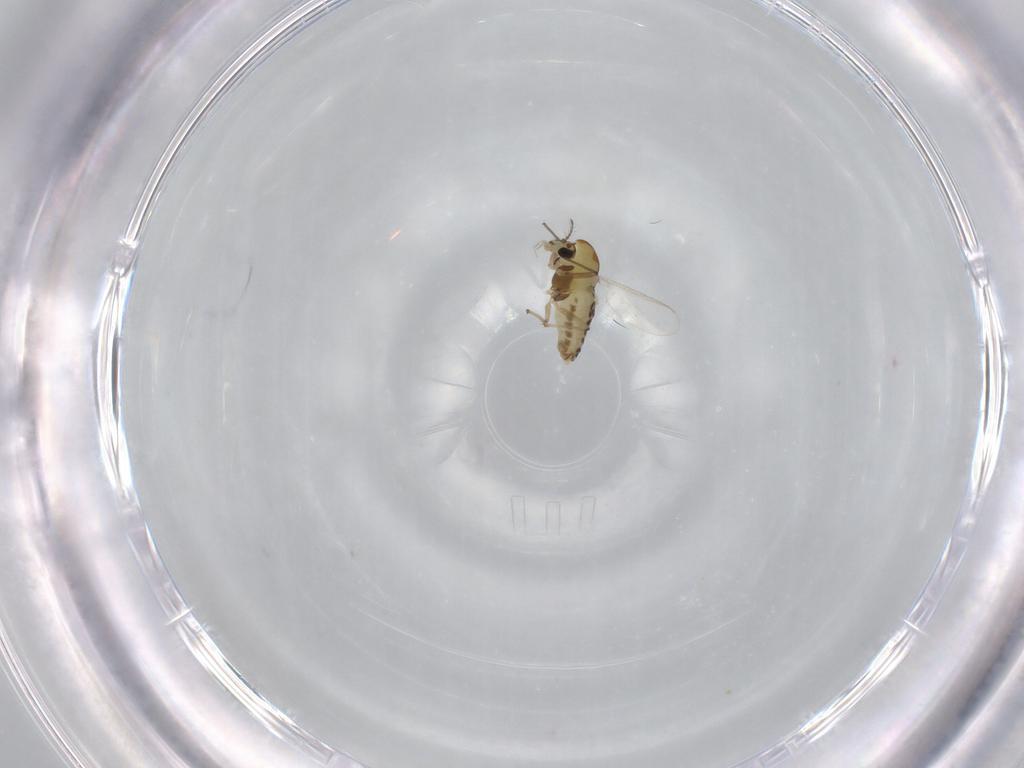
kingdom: Animalia
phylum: Arthropoda
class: Insecta
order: Diptera
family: Chironomidae
